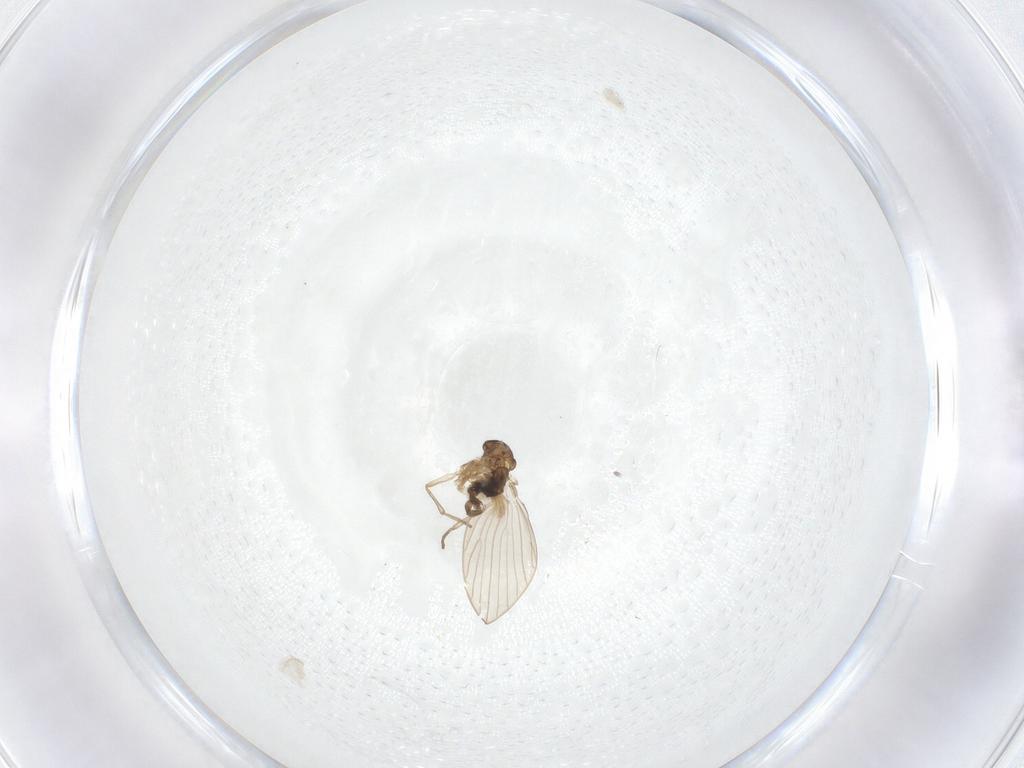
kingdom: Animalia
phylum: Arthropoda
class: Insecta
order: Diptera
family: Psychodidae
